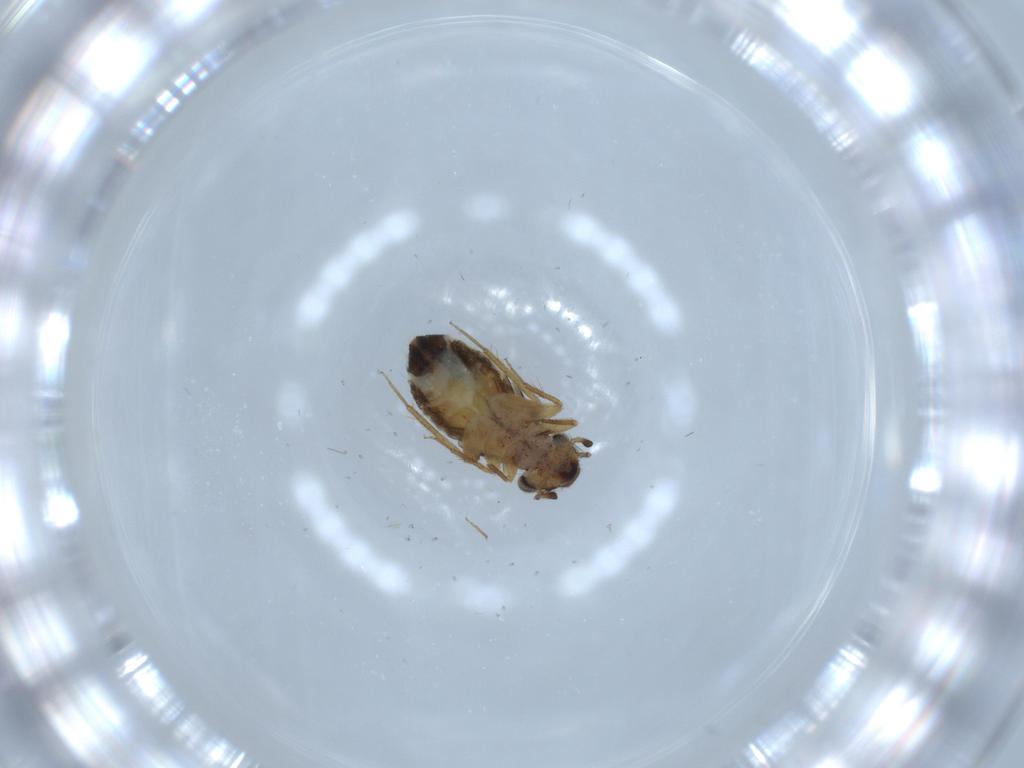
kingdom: Animalia
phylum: Arthropoda
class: Insecta
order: Psocodea
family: Lepidopsocidae
